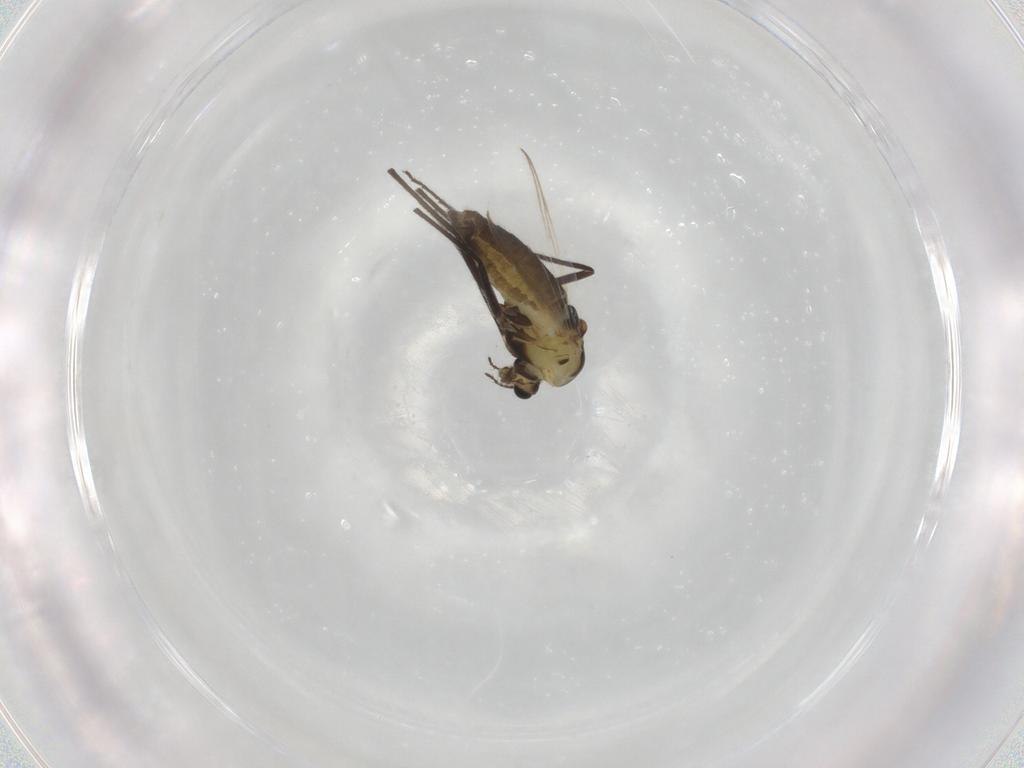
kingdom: Animalia
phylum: Arthropoda
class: Insecta
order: Diptera
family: Chironomidae
